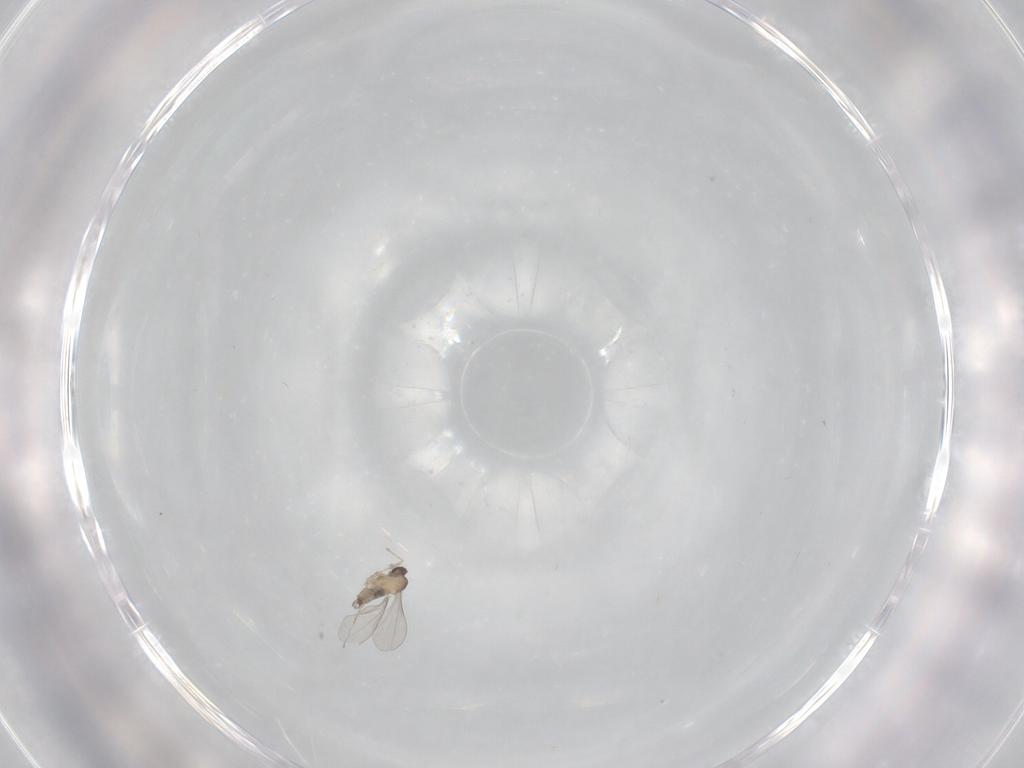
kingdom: Animalia
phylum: Arthropoda
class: Insecta
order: Diptera
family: Cecidomyiidae
